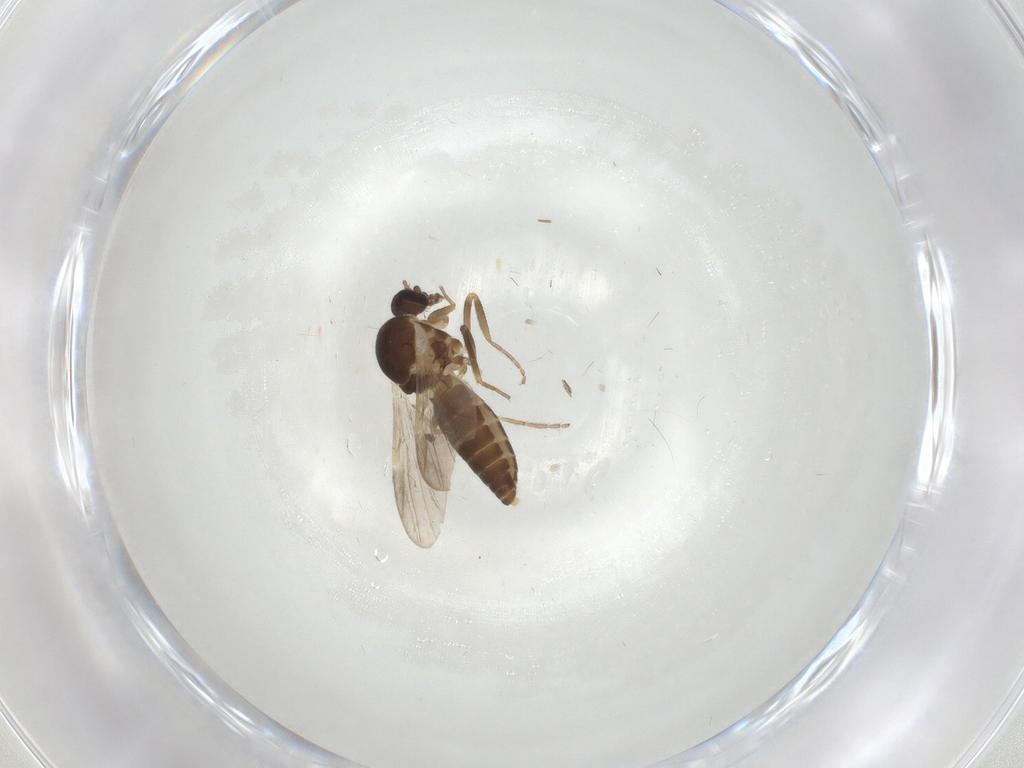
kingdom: Animalia
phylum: Arthropoda
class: Insecta
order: Diptera
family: Ceratopogonidae
